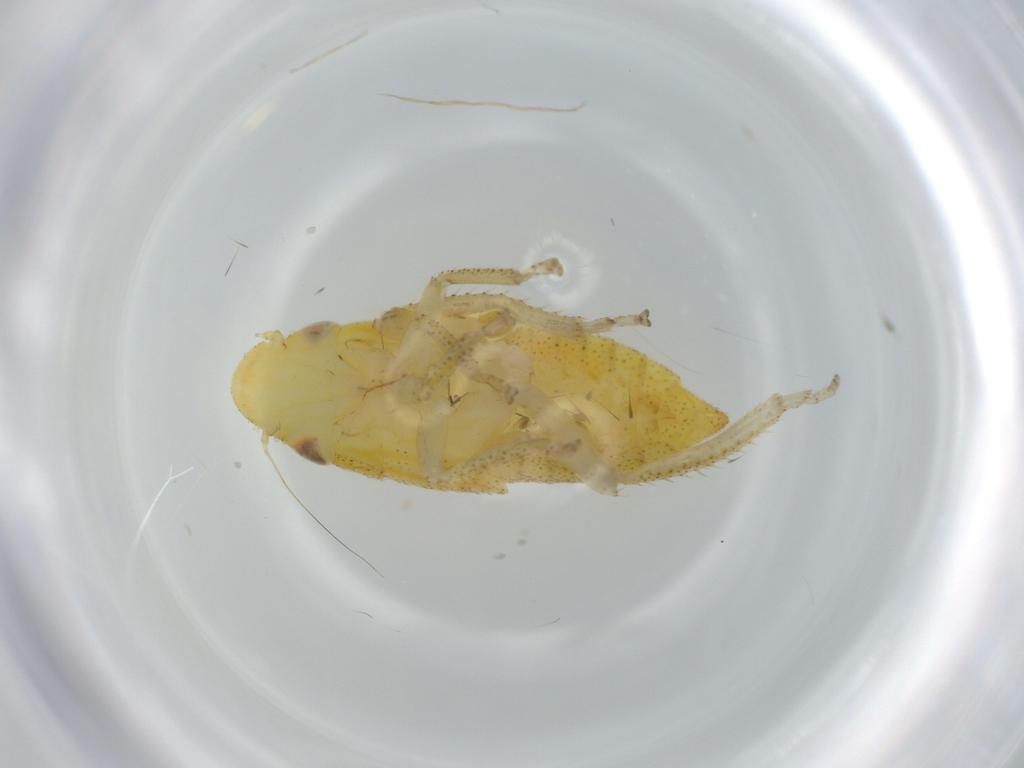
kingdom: Animalia
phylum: Arthropoda
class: Insecta
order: Hemiptera
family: Cicadellidae
